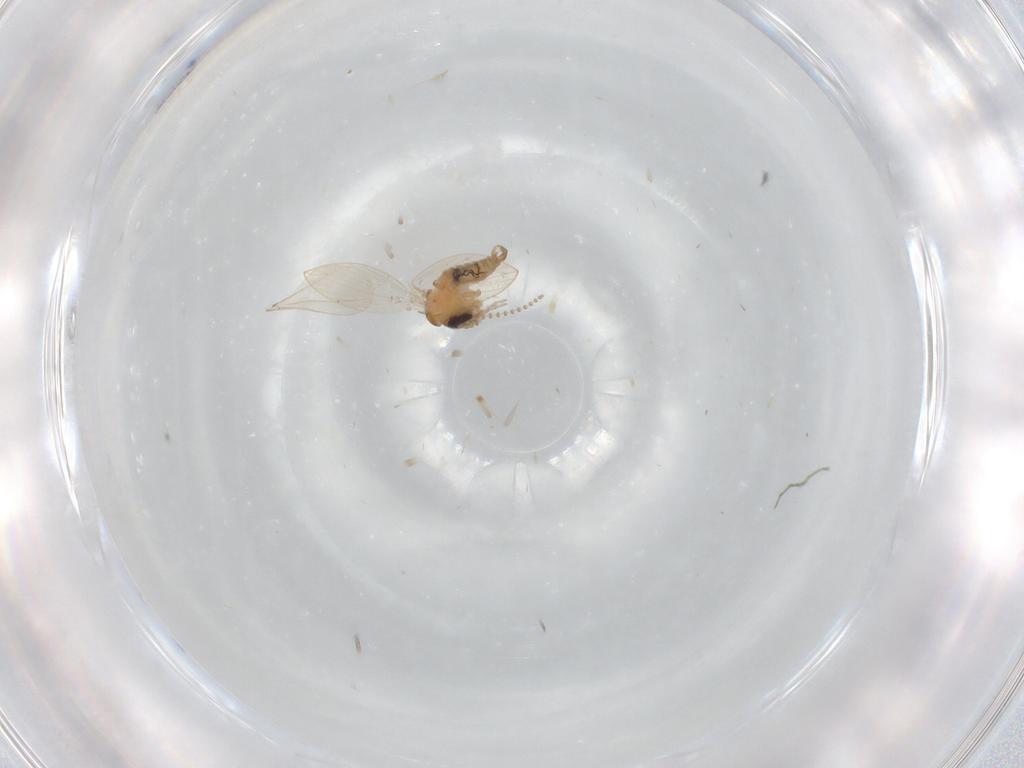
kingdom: Animalia
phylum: Arthropoda
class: Insecta
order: Diptera
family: Ceratopogonidae
